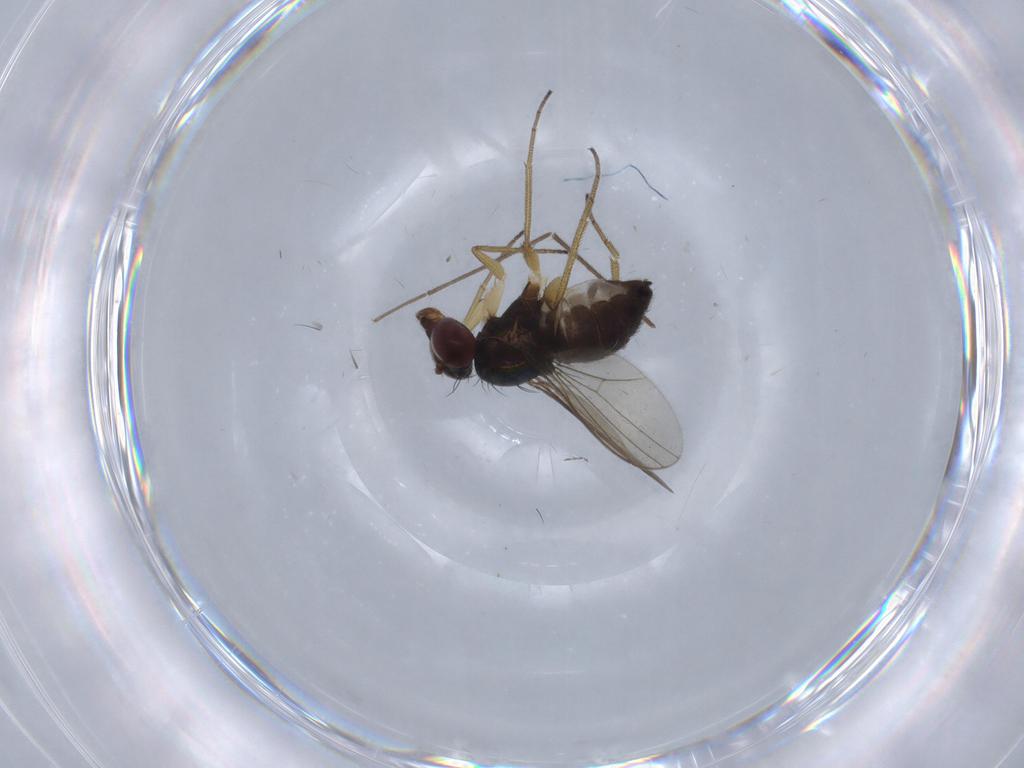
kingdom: Animalia
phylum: Arthropoda
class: Insecta
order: Diptera
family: Dolichopodidae
